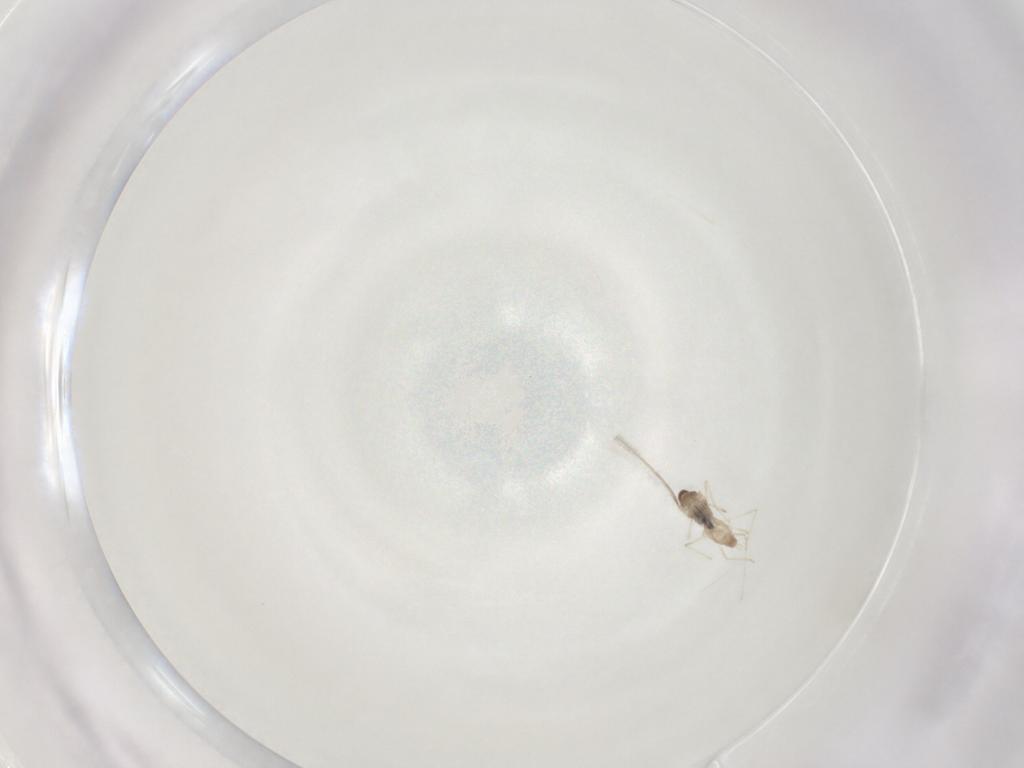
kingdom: Animalia
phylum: Arthropoda
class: Insecta
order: Diptera
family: Cecidomyiidae
